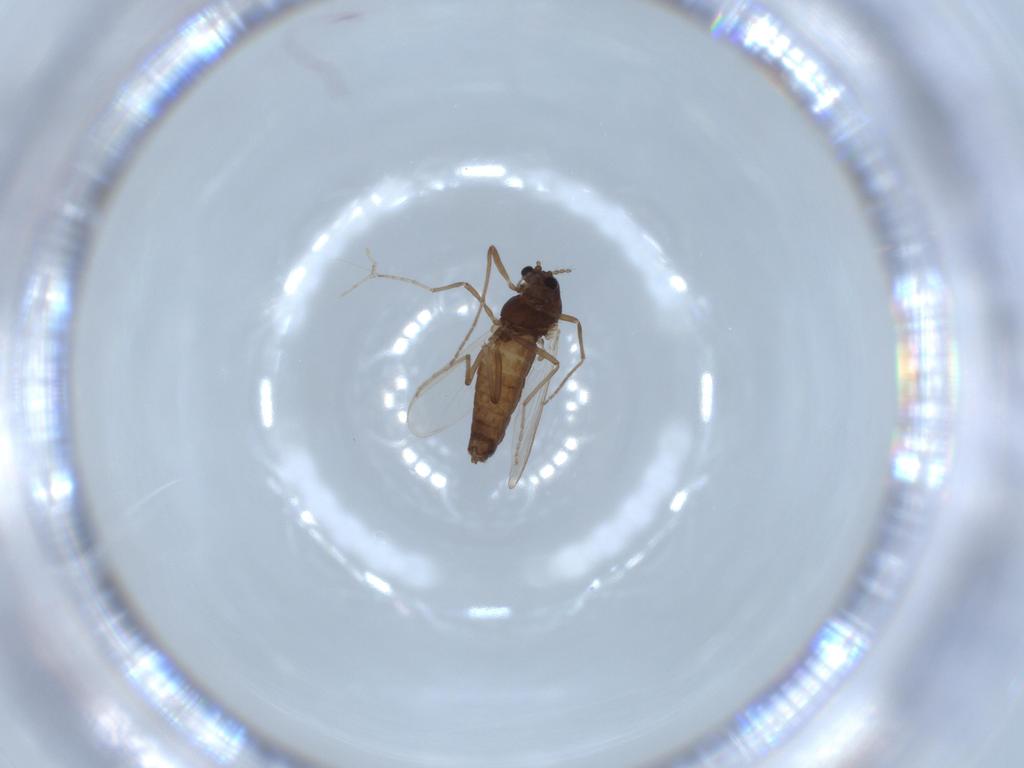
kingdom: Animalia
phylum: Arthropoda
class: Insecta
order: Diptera
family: Sciaridae
